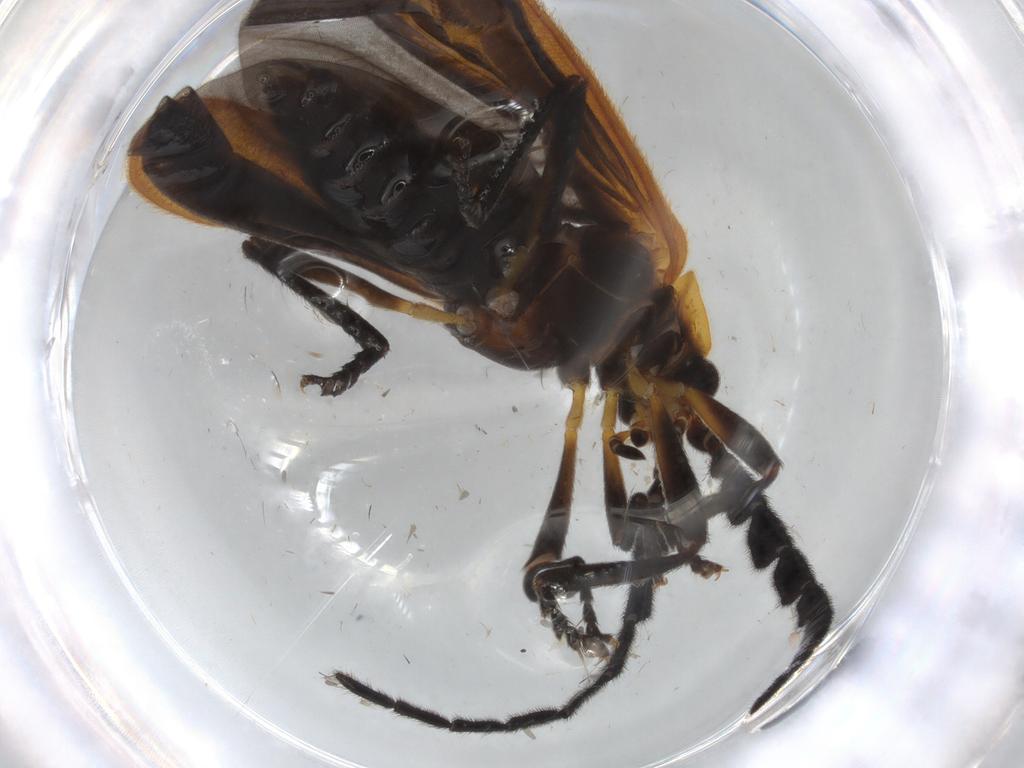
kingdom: Animalia
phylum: Arthropoda
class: Insecta
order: Coleoptera
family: Lycidae
